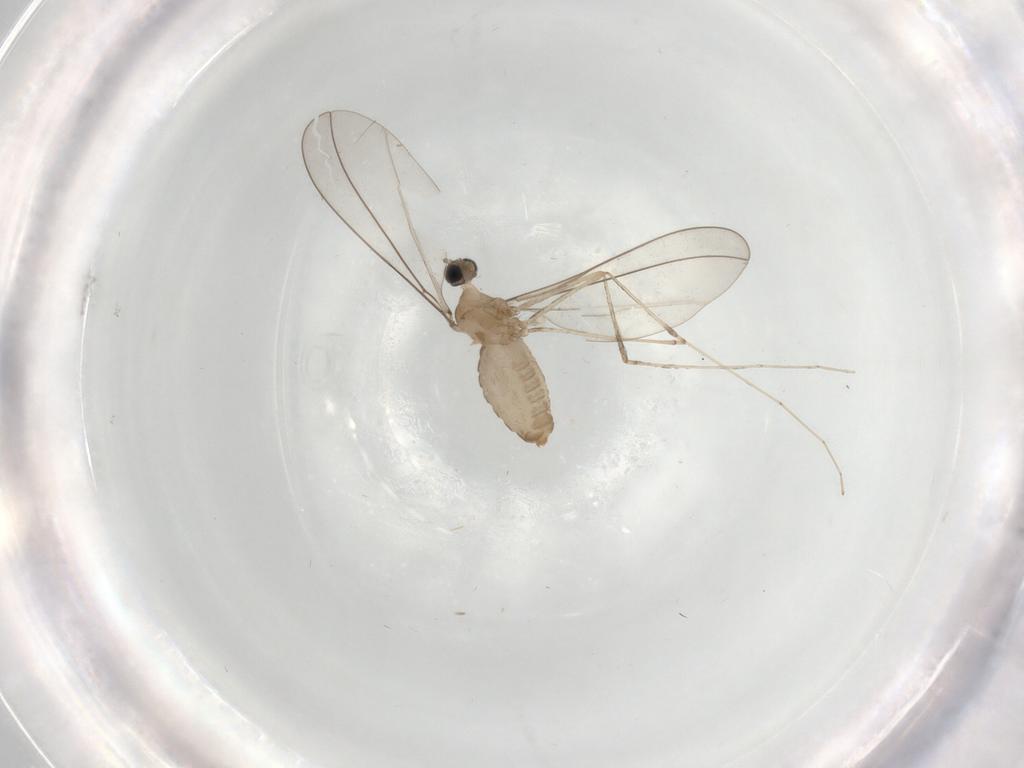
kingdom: Animalia
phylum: Arthropoda
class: Insecta
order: Diptera
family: Cecidomyiidae
